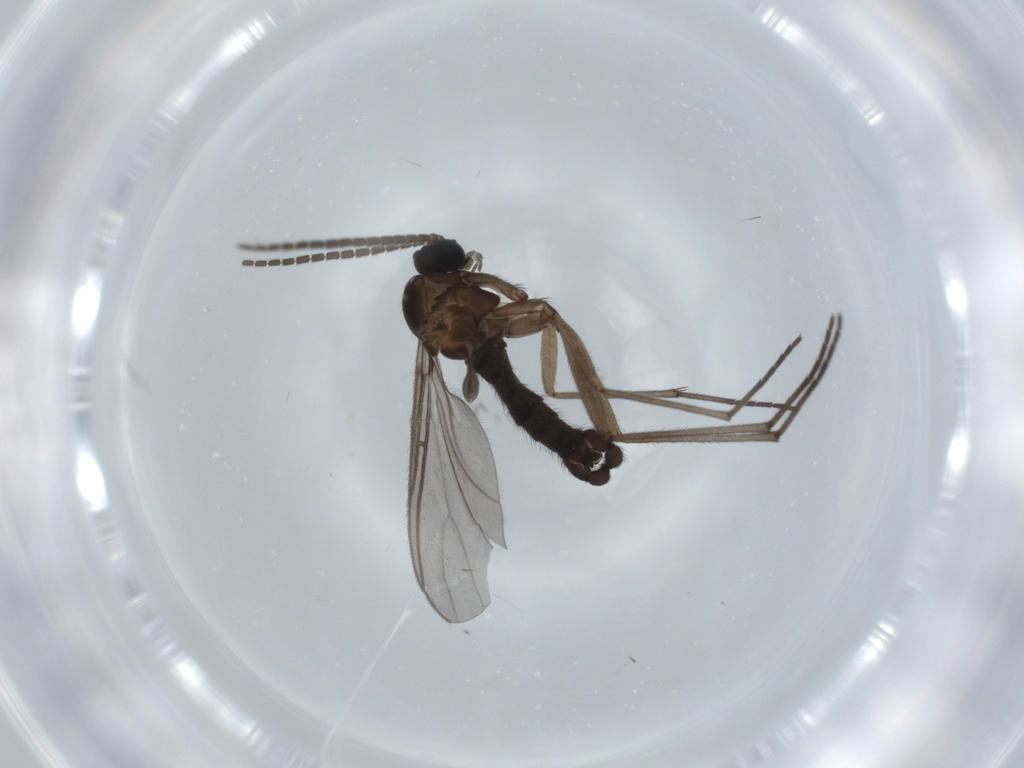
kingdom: Animalia
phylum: Arthropoda
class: Insecta
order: Diptera
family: Sciaridae
